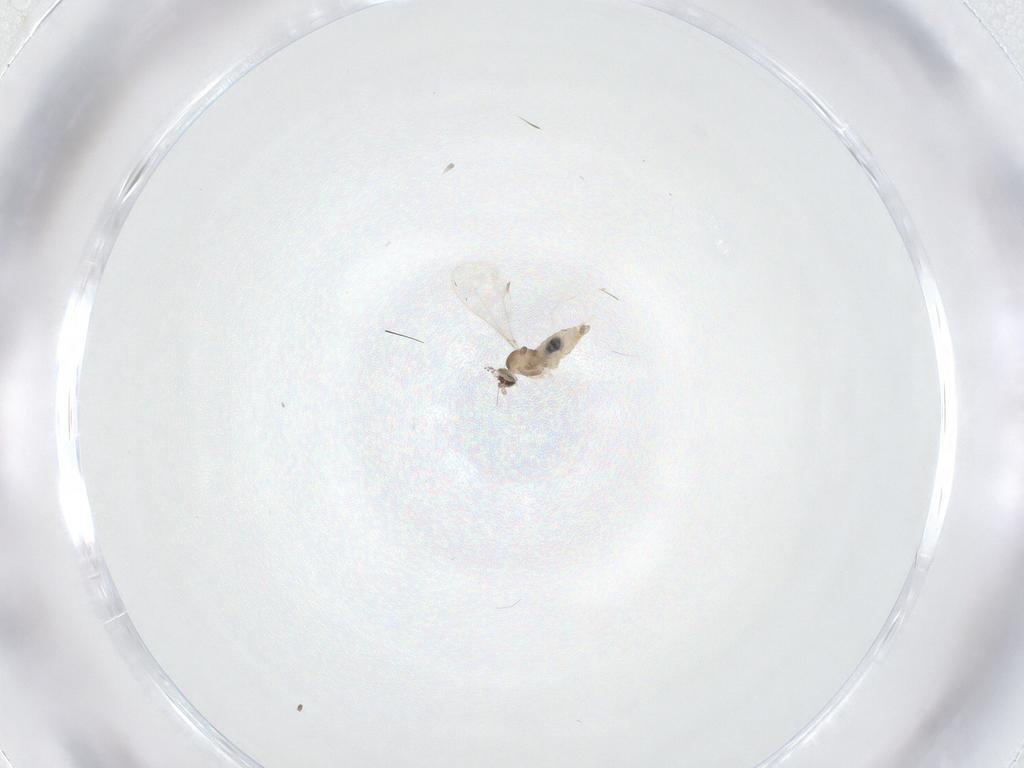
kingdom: Animalia
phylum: Arthropoda
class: Insecta
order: Diptera
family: Cecidomyiidae
